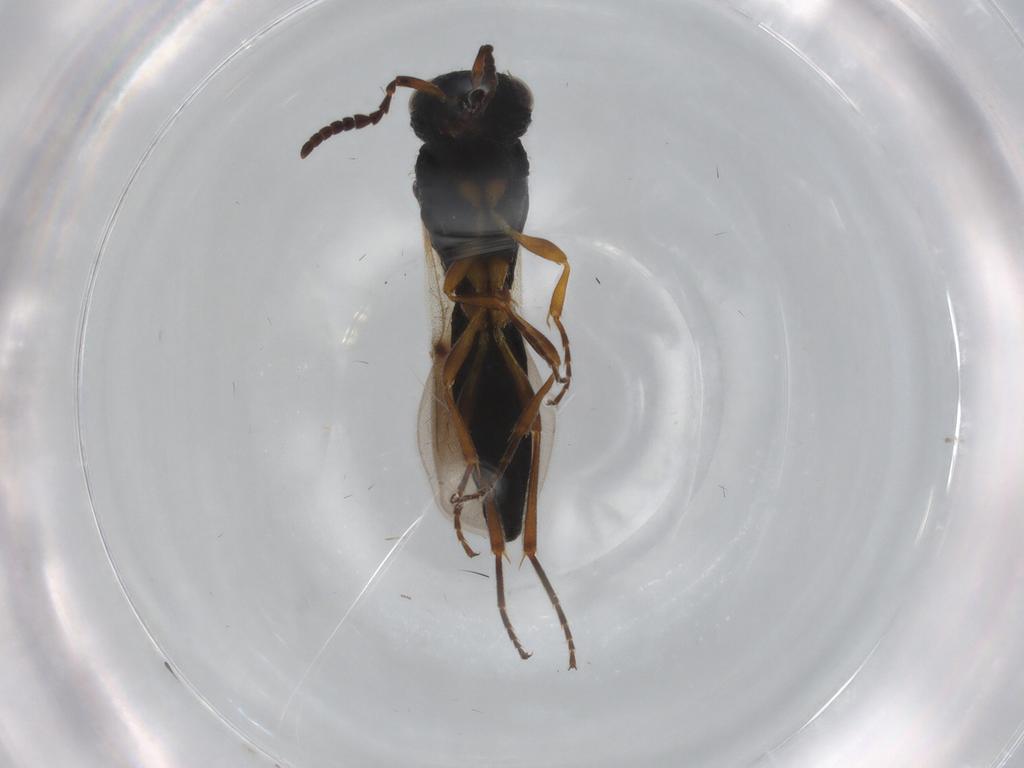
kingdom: Animalia
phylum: Arthropoda
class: Insecta
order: Hymenoptera
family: Scelionidae
